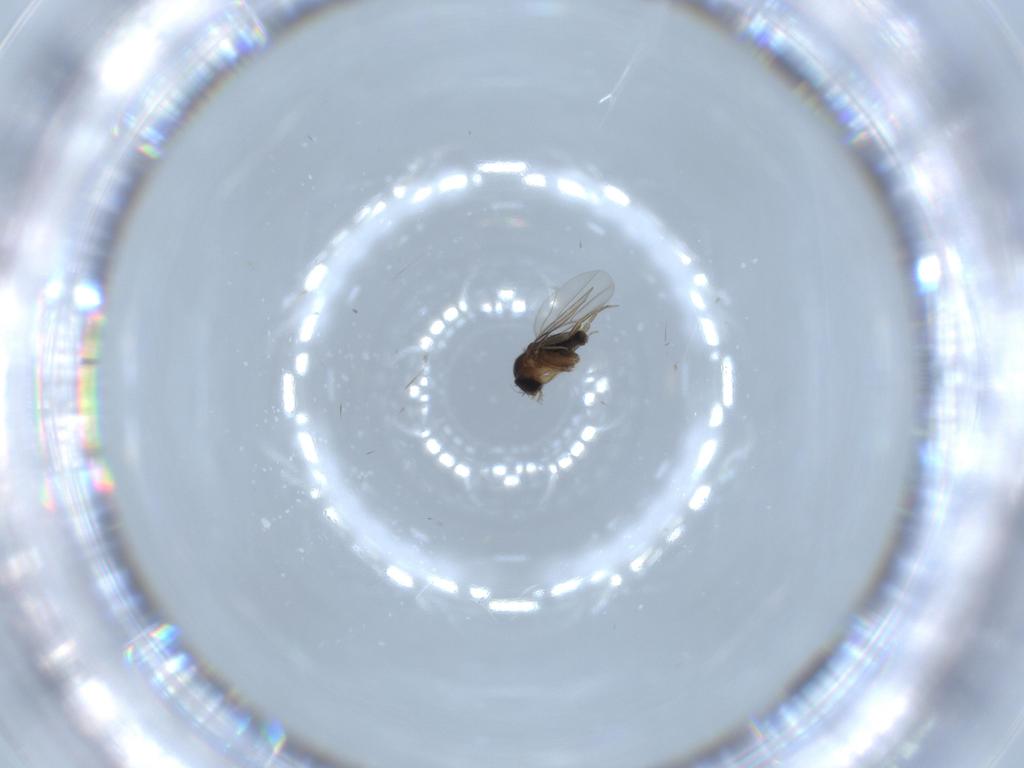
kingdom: Animalia
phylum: Arthropoda
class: Insecta
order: Diptera
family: Phoridae
